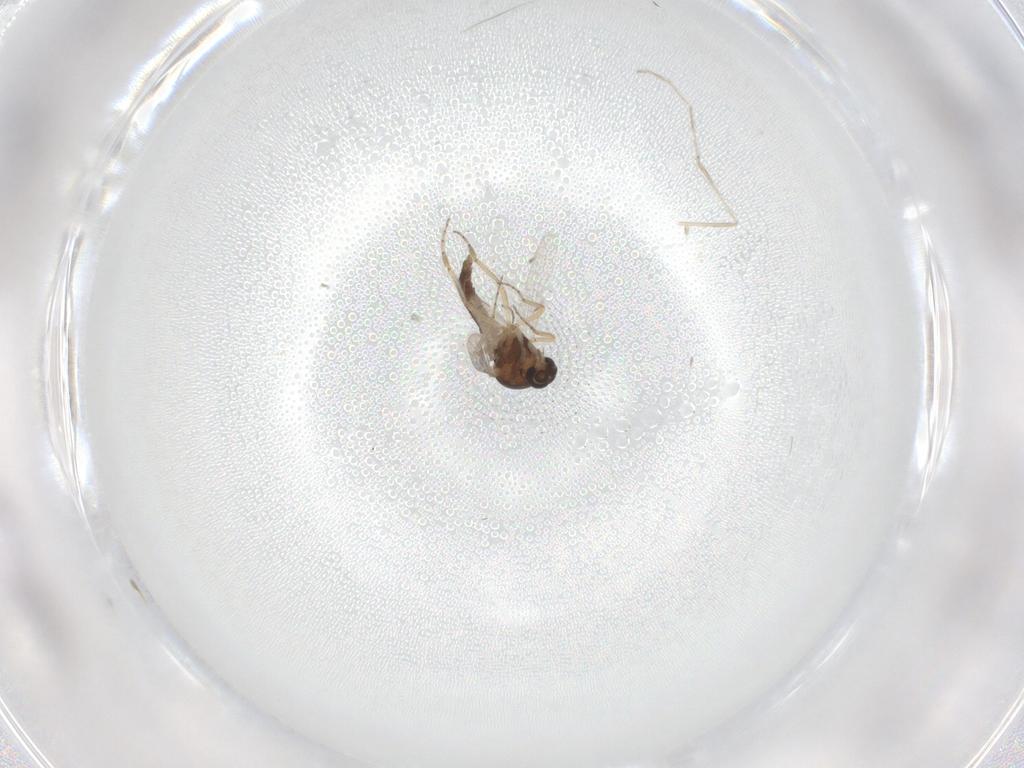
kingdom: Animalia
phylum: Arthropoda
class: Insecta
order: Diptera
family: Ceratopogonidae
